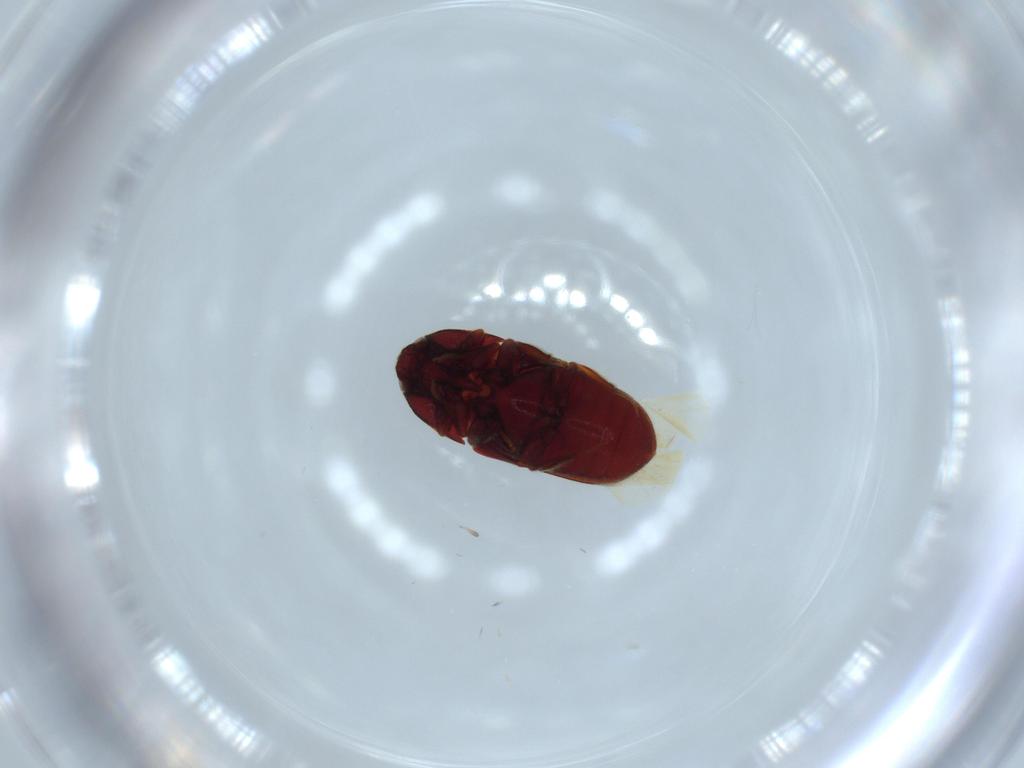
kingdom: Animalia
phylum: Arthropoda
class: Insecta
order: Coleoptera
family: Throscidae
